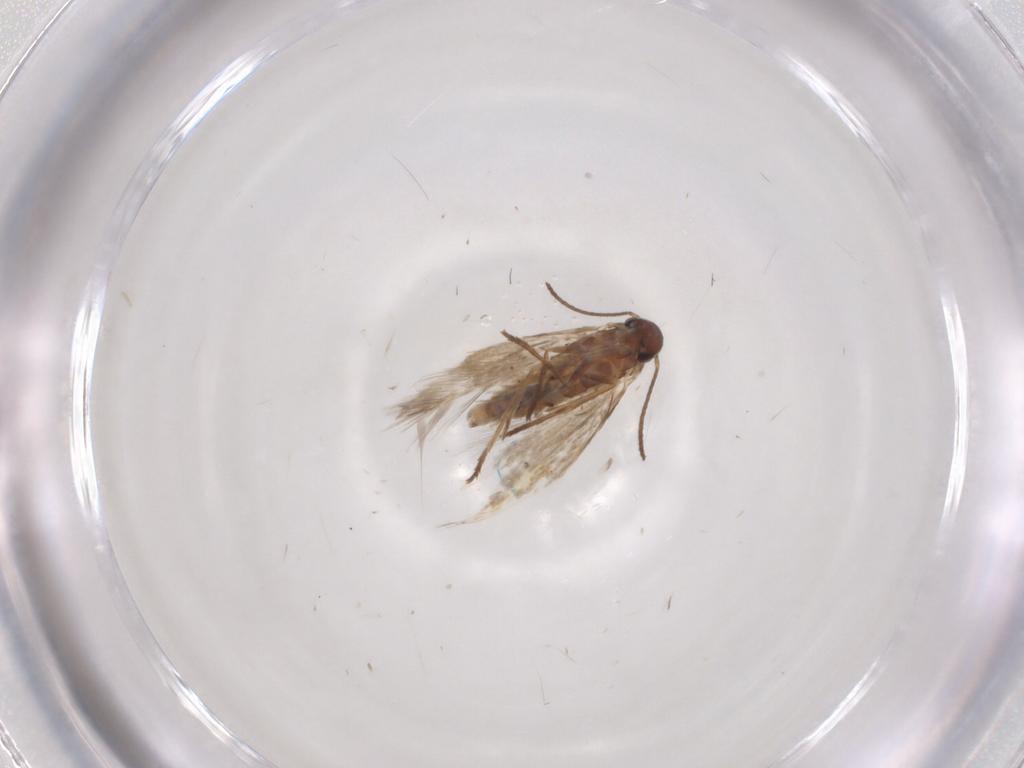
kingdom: Animalia
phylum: Arthropoda
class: Insecta
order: Lepidoptera
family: Heliozelidae
